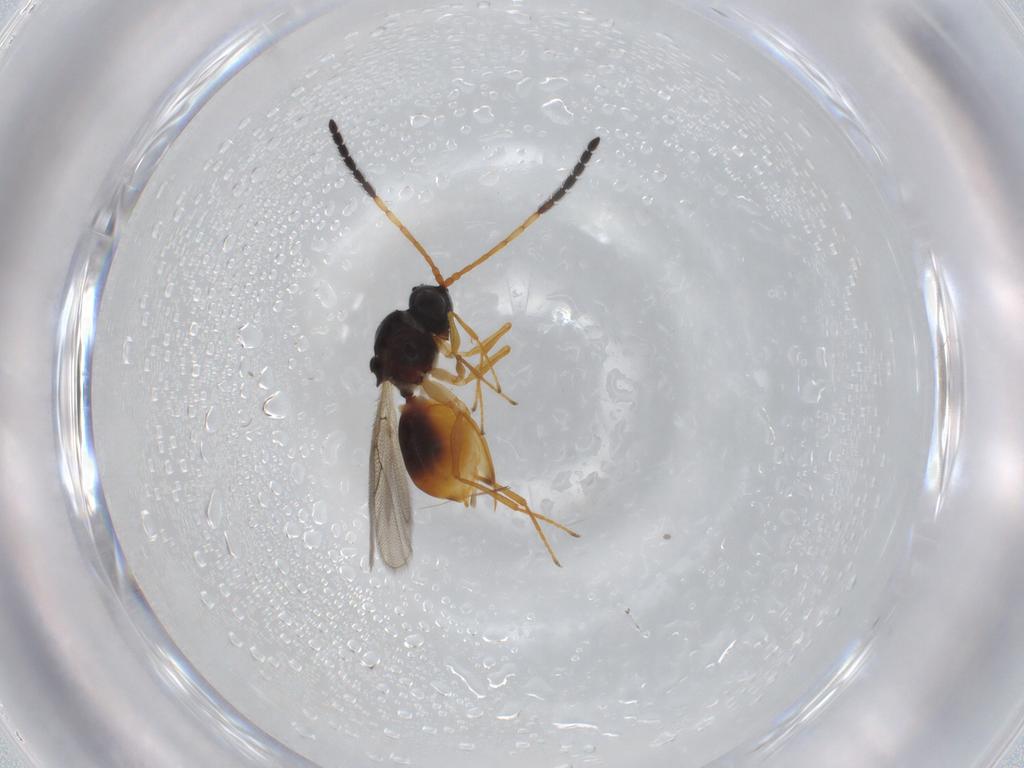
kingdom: Animalia
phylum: Arthropoda
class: Insecta
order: Hymenoptera
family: Figitidae
